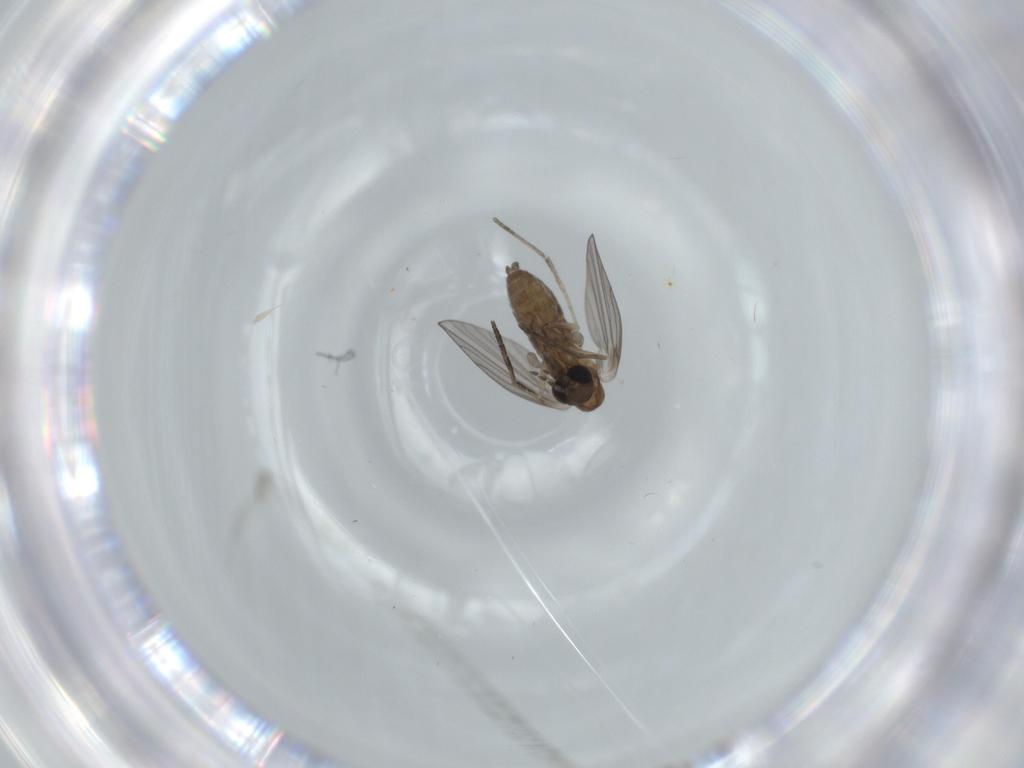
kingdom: Animalia
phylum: Arthropoda
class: Insecta
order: Diptera
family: Psychodidae
